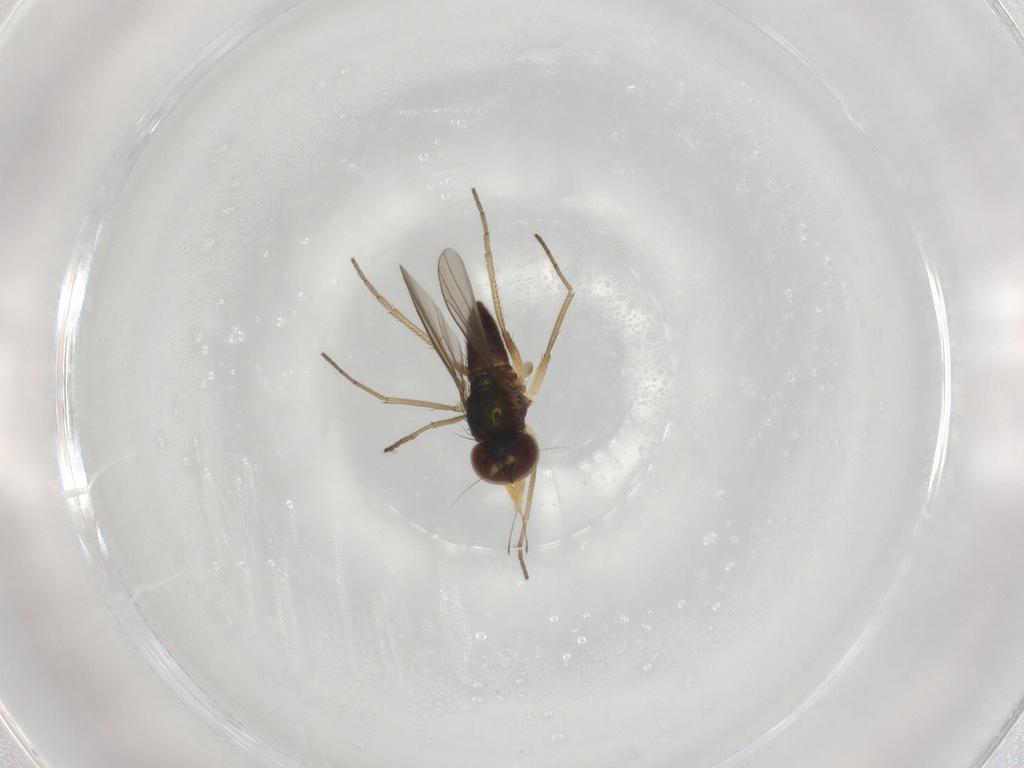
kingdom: Animalia
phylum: Arthropoda
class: Insecta
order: Diptera
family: Dolichopodidae
